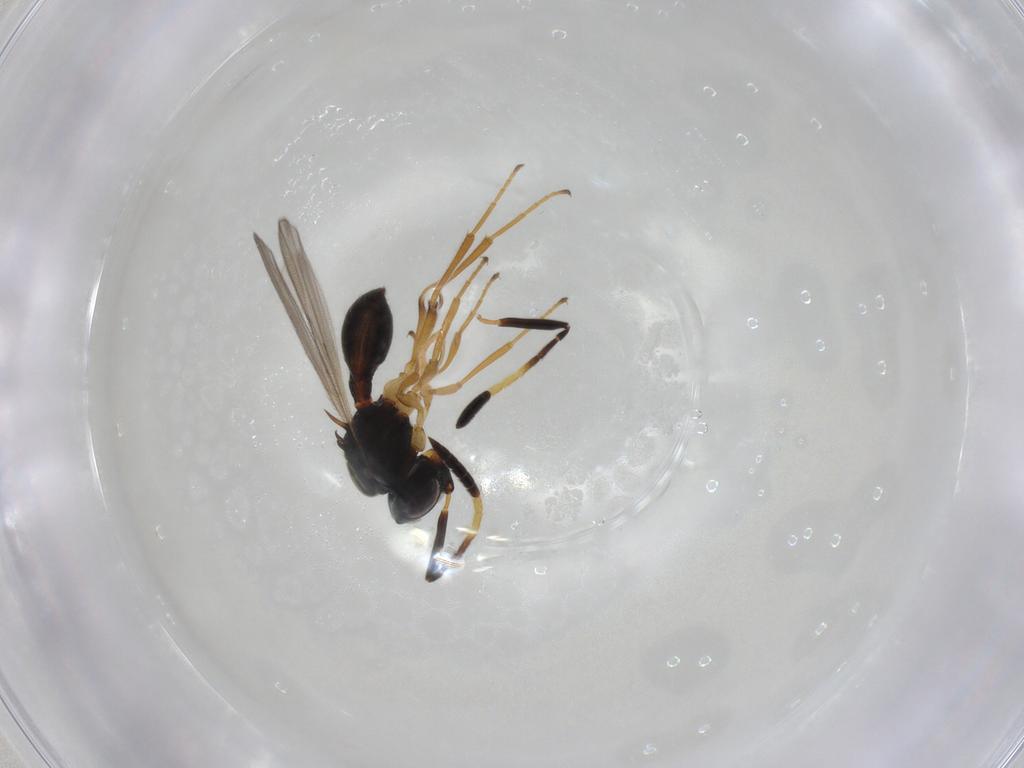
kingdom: Animalia
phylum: Arthropoda
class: Insecta
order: Hymenoptera
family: Scelionidae
